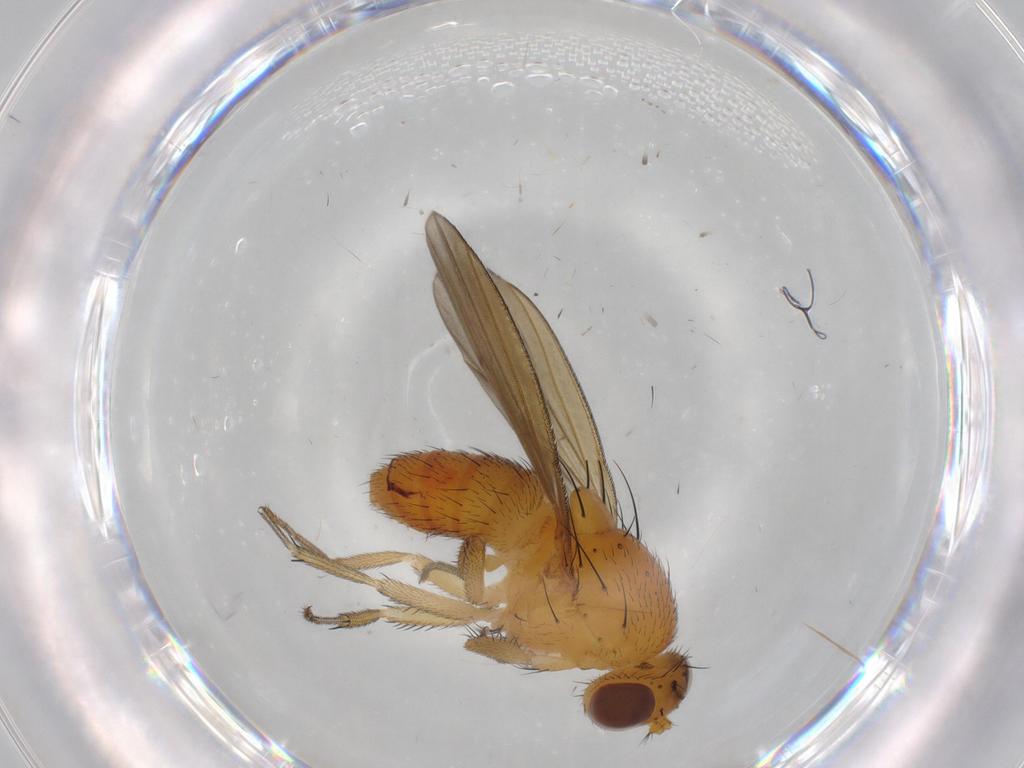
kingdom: Animalia
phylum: Arthropoda
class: Insecta
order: Diptera
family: Lauxaniidae
